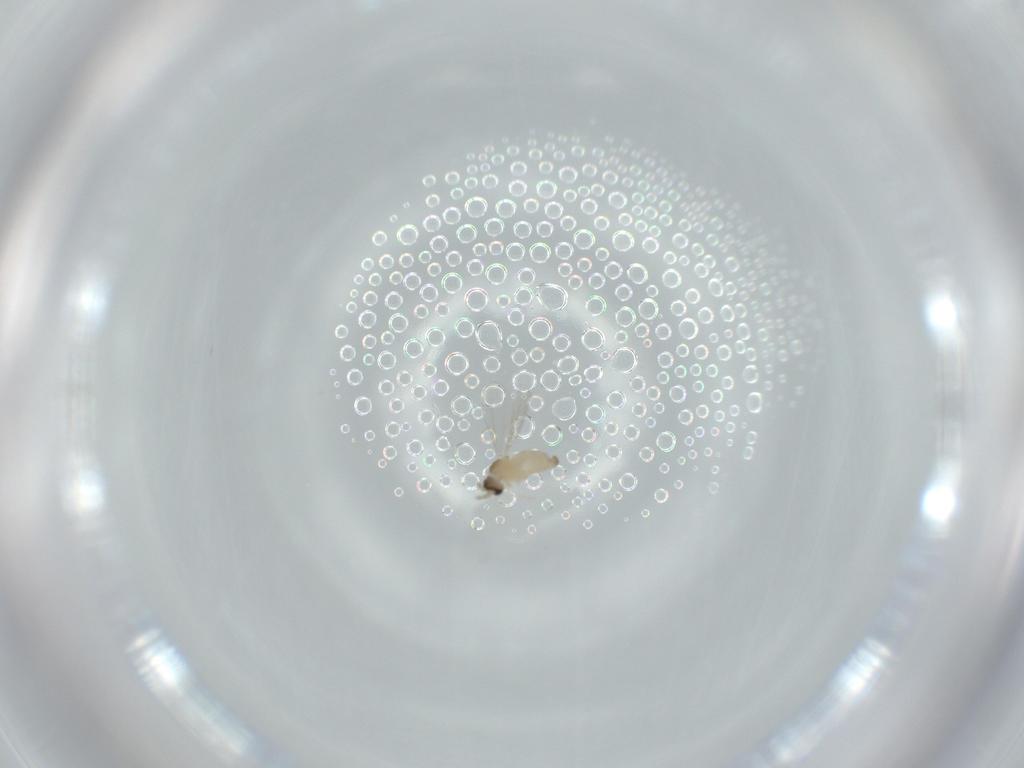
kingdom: Animalia
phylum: Arthropoda
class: Insecta
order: Diptera
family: Cecidomyiidae
